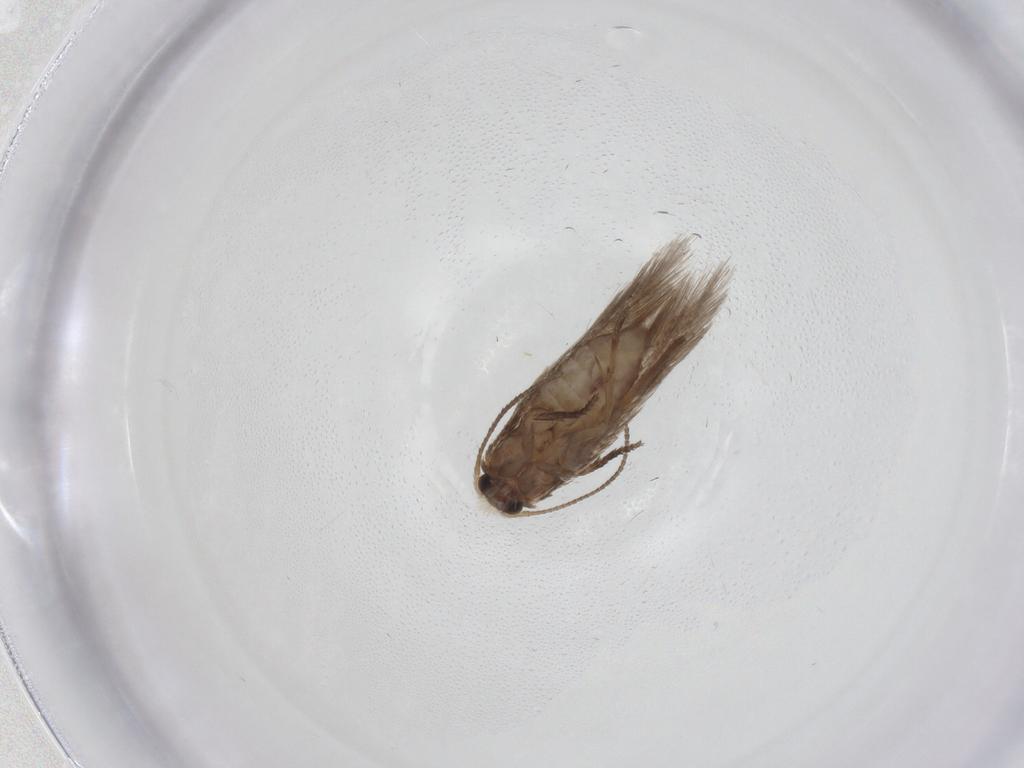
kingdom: Animalia
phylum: Arthropoda
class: Insecta
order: Lepidoptera
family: Nepticulidae
